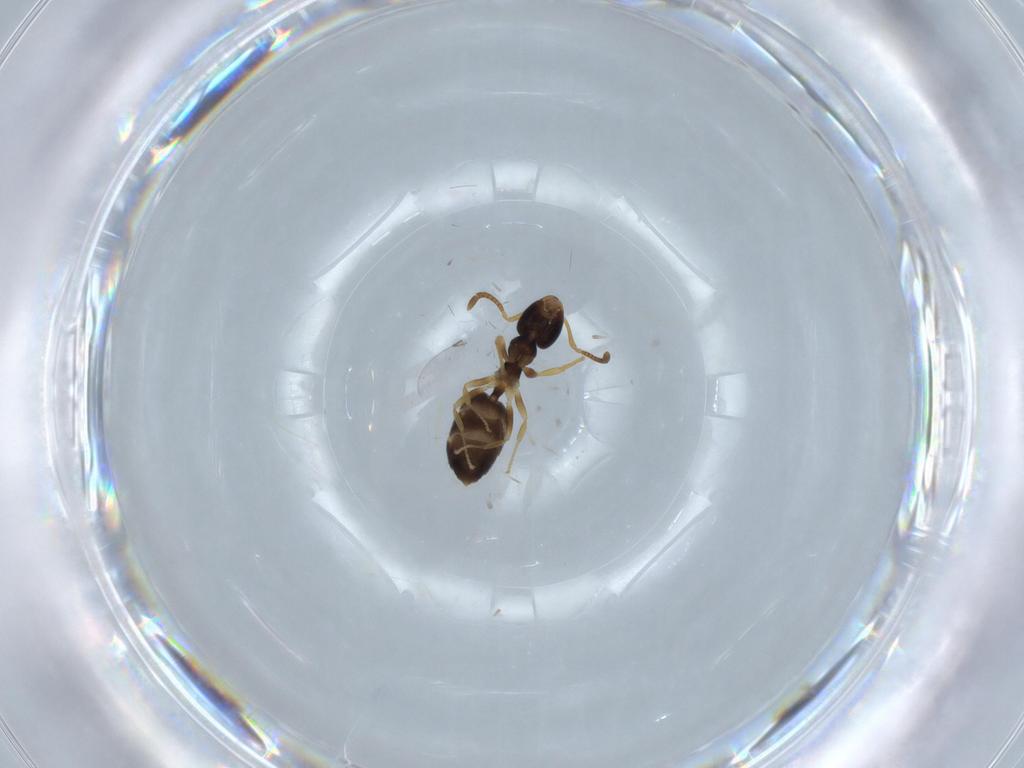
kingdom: Animalia
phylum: Arthropoda
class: Insecta
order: Hymenoptera
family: Formicidae
